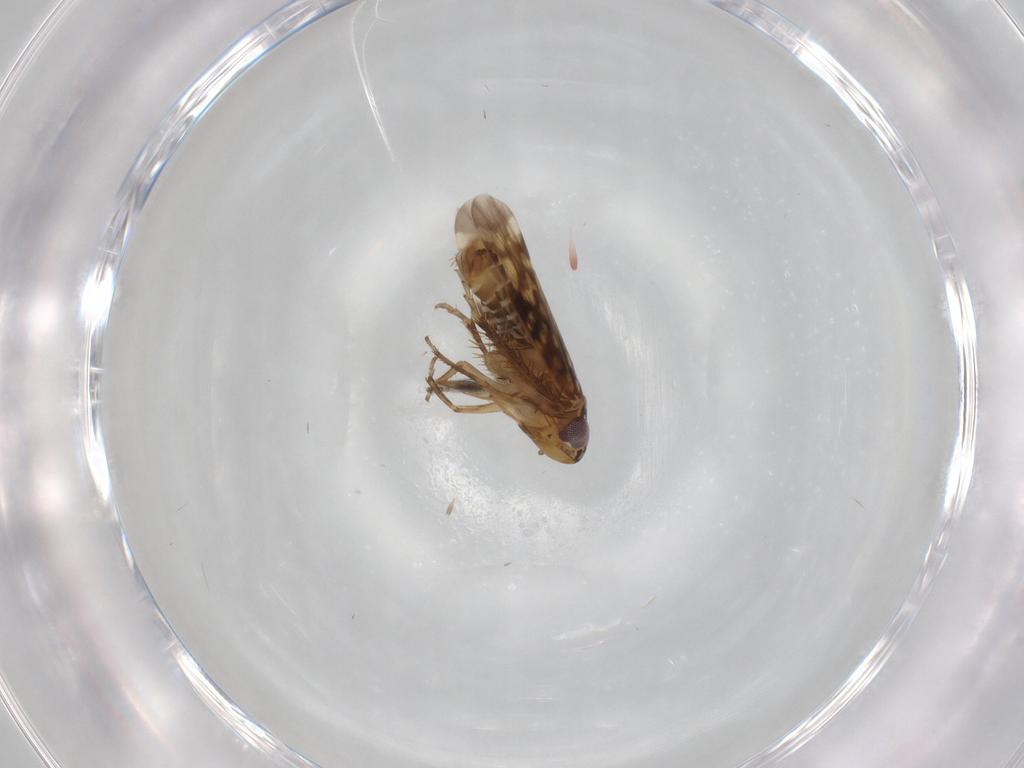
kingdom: Animalia
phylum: Arthropoda
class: Insecta
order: Hemiptera
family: Cicadellidae
